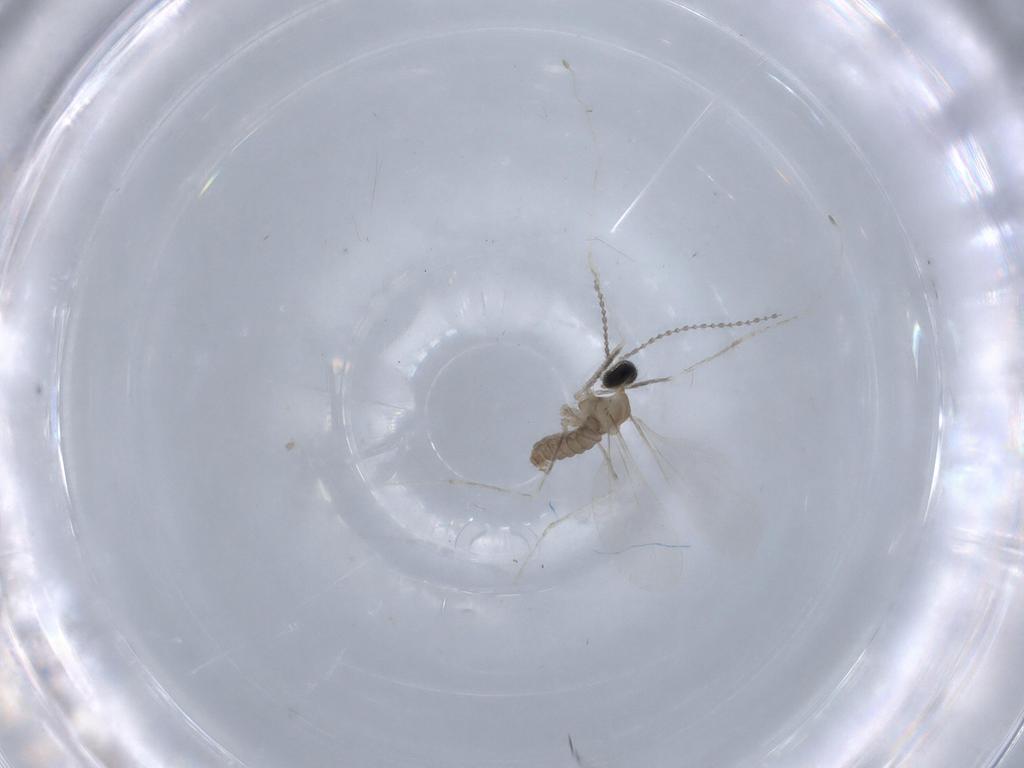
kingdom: Animalia
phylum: Arthropoda
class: Insecta
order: Diptera
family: Cecidomyiidae
